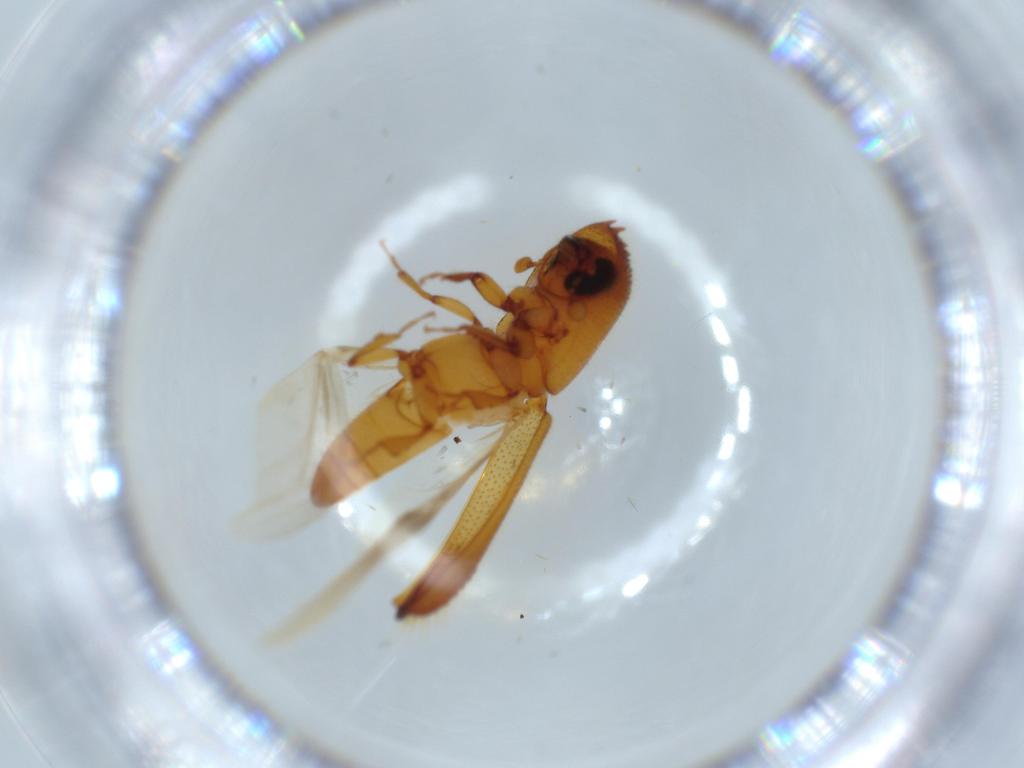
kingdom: Animalia
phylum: Arthropoda
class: Insecta
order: Coleoptera
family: Curculionidae
